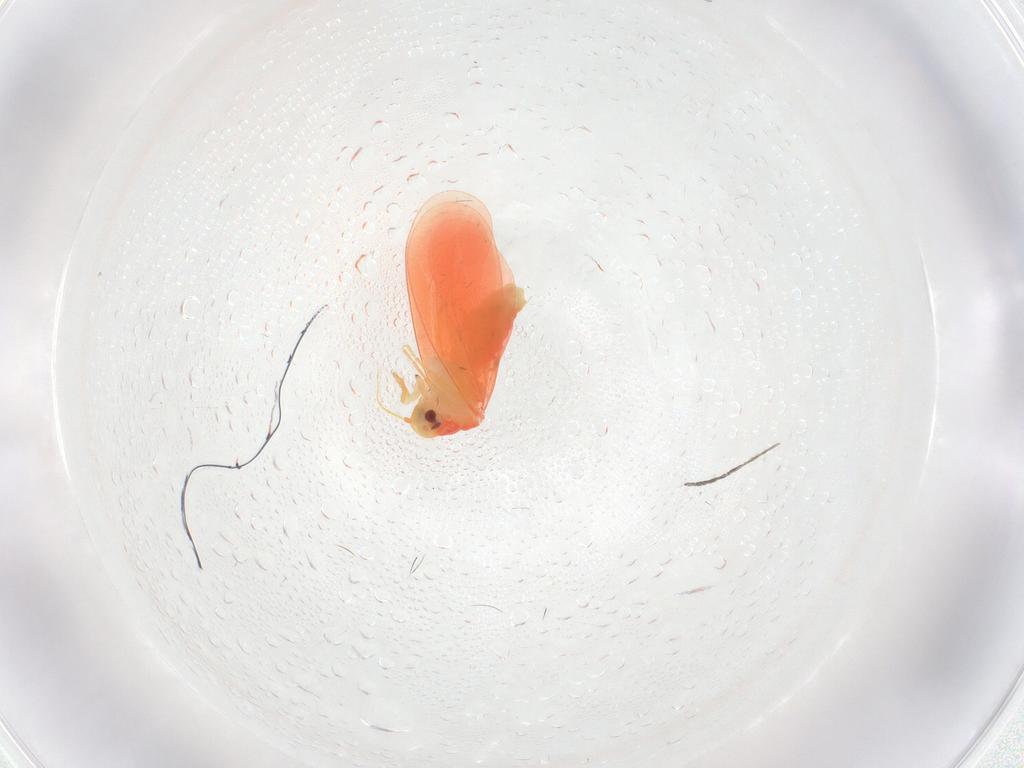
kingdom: Animalia
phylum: Arthropoda
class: Insecta
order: Hemiptera
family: Aleyrodidae
